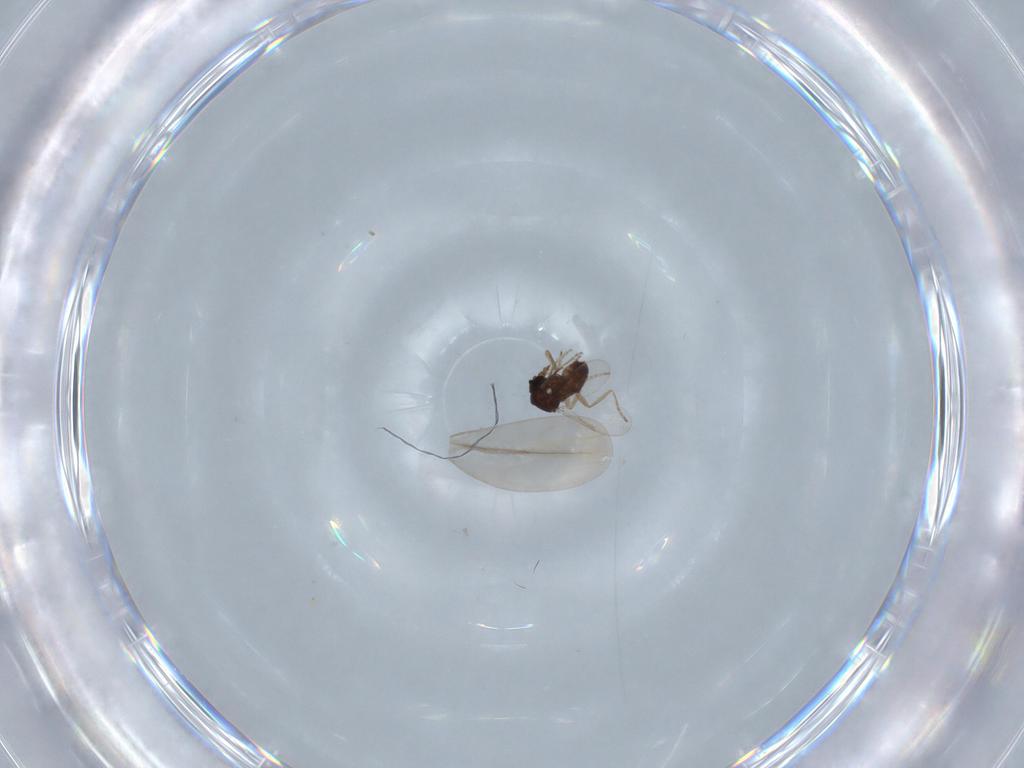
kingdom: Animalia
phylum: Arthropoda
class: Insecta
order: Diptera
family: Ceratopogonidae
